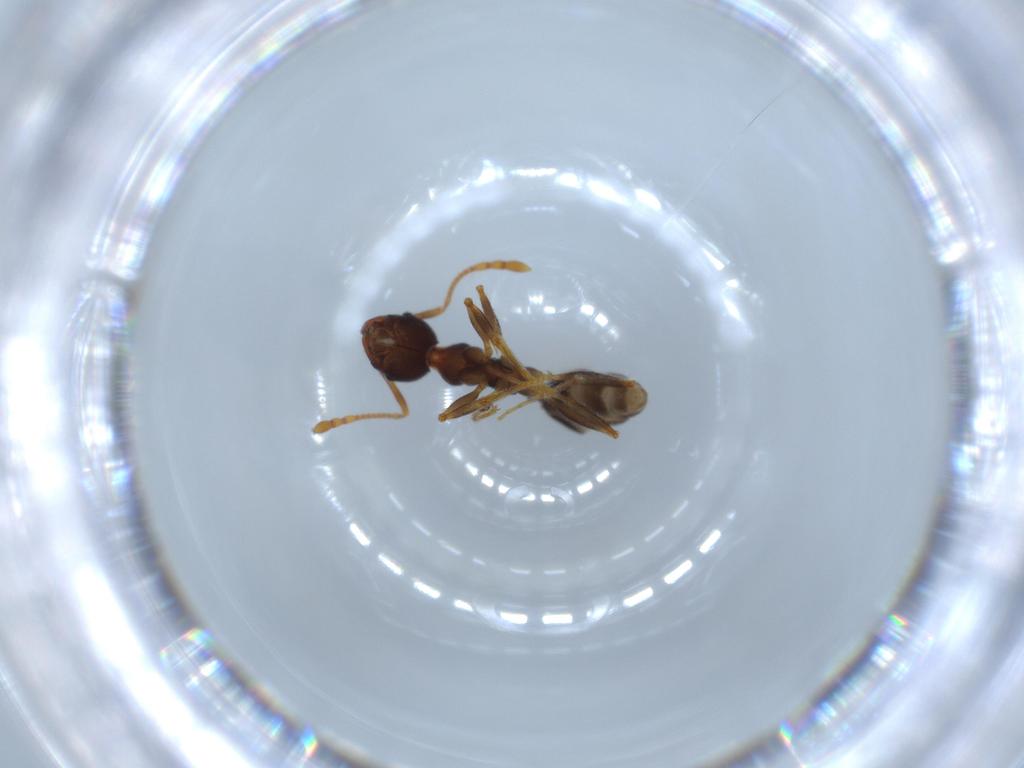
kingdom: Animalia
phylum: Arthropoda
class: Insecta
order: Hymenoptera
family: Formicidae
